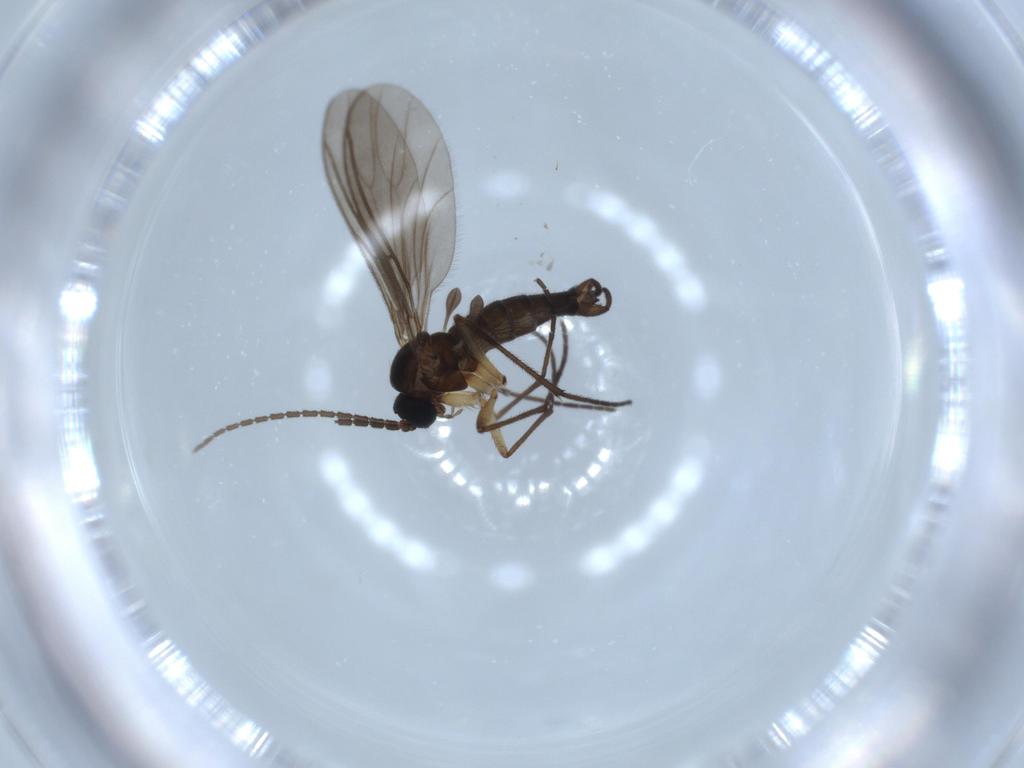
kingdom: Animalia
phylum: Arthropoda
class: Insecta
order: Diptera
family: Sciaridae
